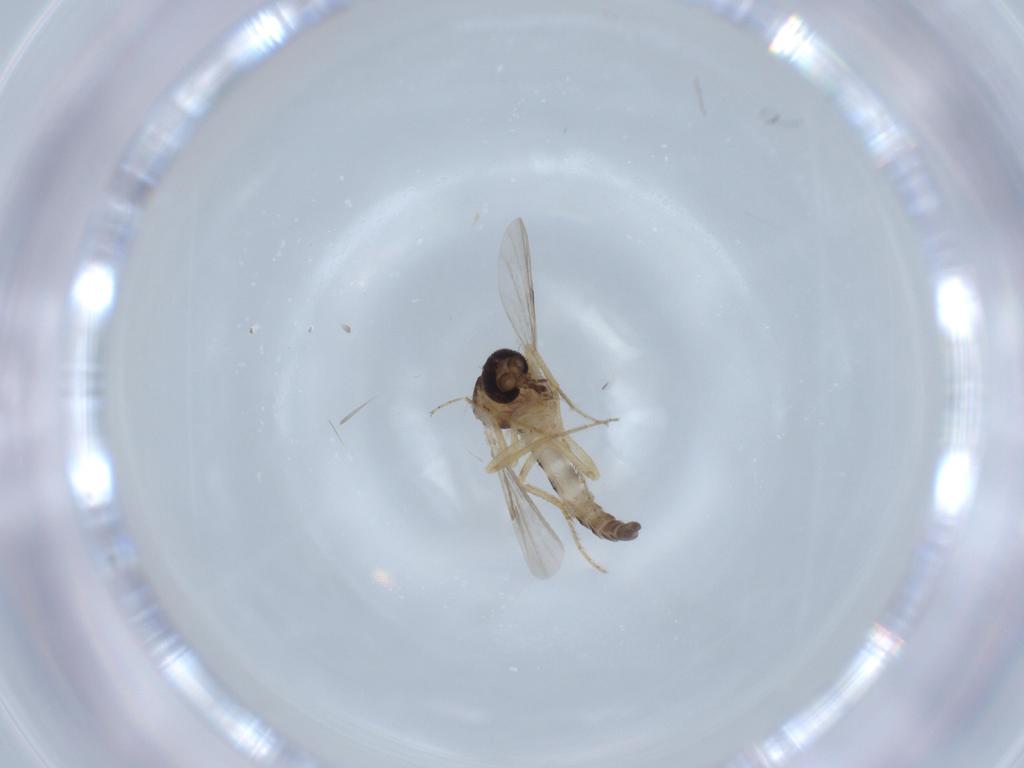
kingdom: Animalia
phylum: Arthropoda
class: Insecta
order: Diptera
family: Ceratopogonidae
